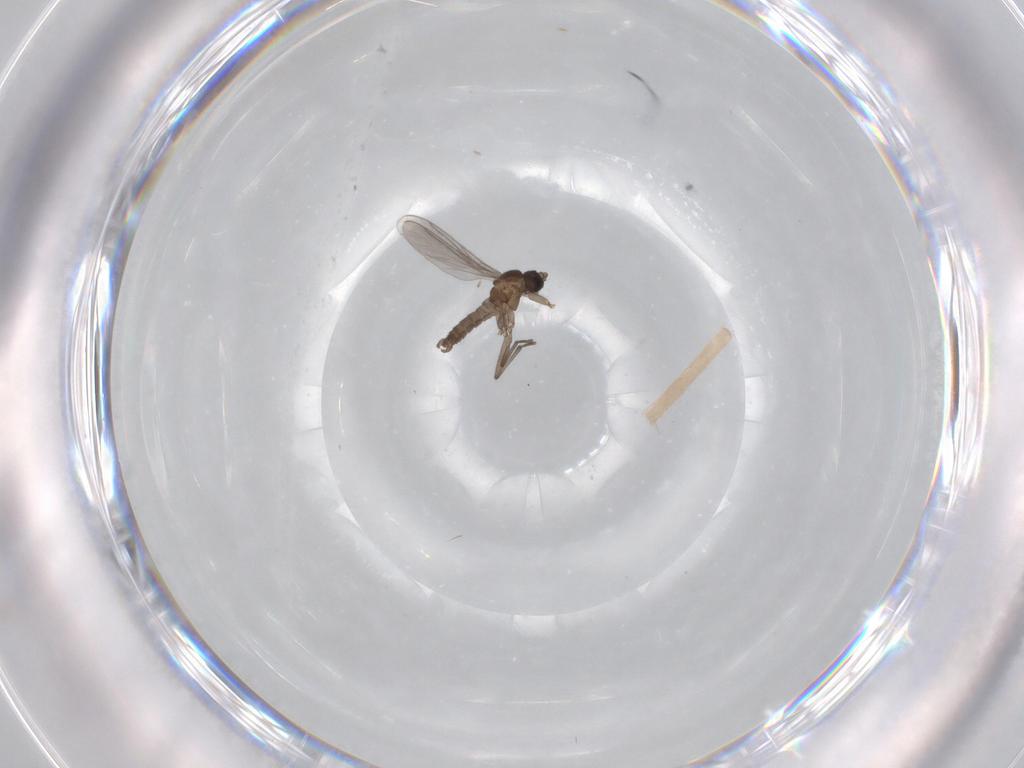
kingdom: Animalia
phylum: Arthropoda
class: Insecta
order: Diptera
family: Sciaridae
